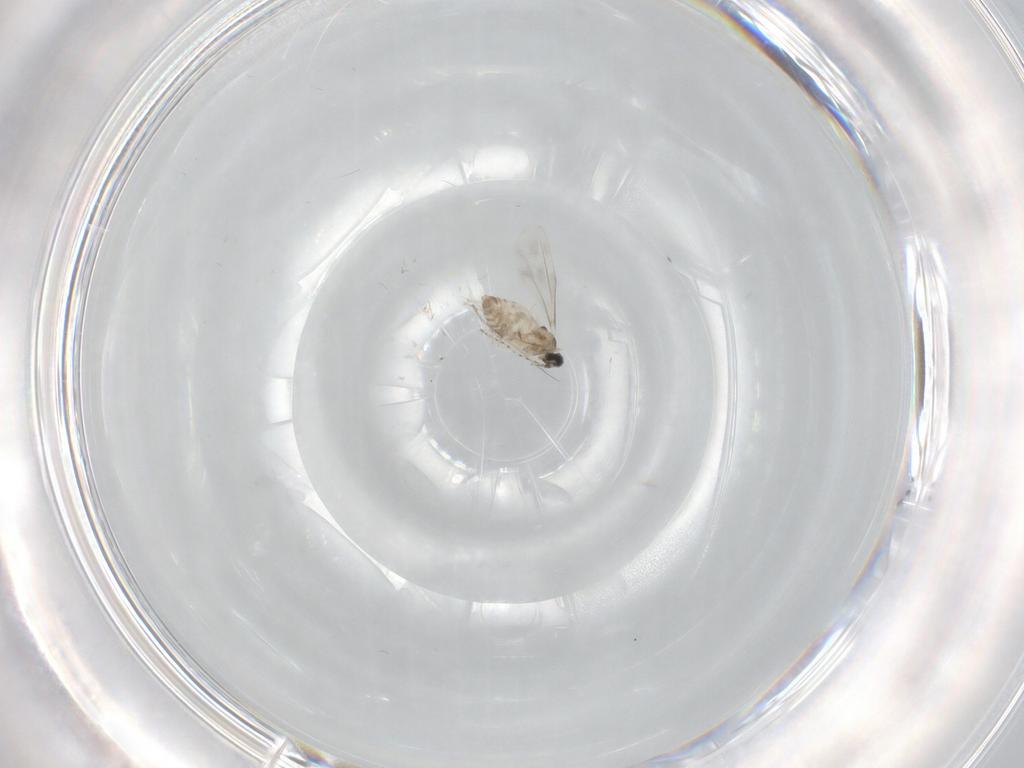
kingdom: Animalia
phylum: Arthropoda
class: Insecta
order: Diptera
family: Cecidomyiidae
